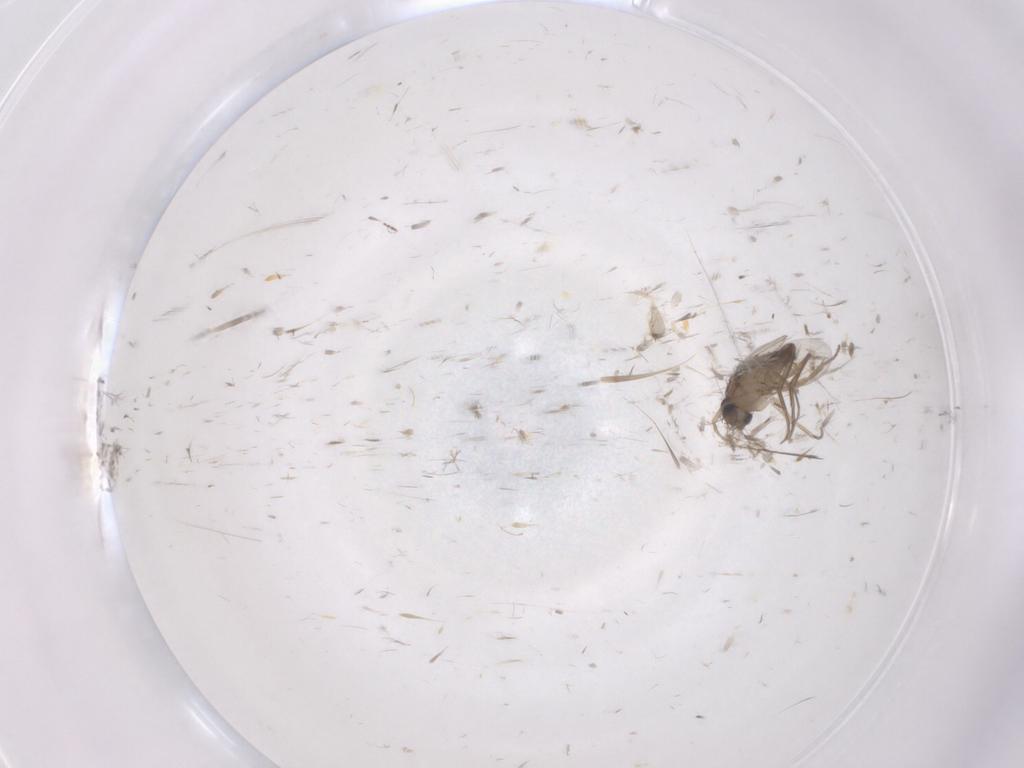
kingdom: Animalia
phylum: Arthropoda
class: Insecta
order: Diptera
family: Phoridae
